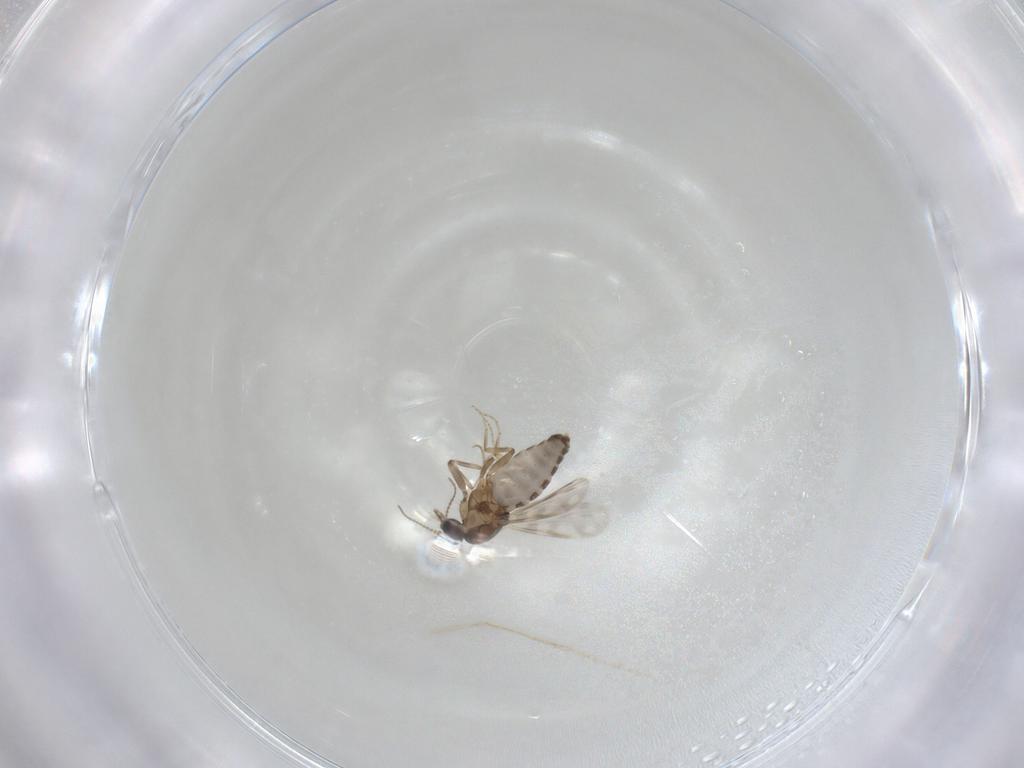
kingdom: Animalia
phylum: Arthropoda
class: Insecta
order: Diptera
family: Ceratopogonidae
